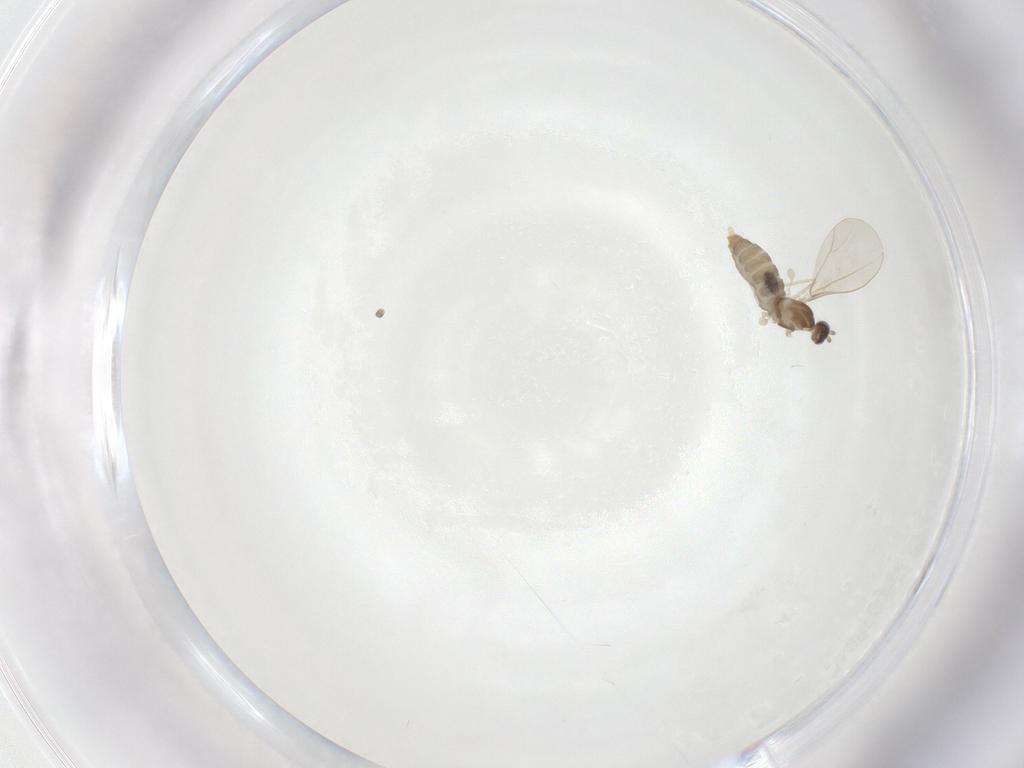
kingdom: Animalia
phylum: Arthropoda
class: Insecta
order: Diptera
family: Cecidomyiidae
